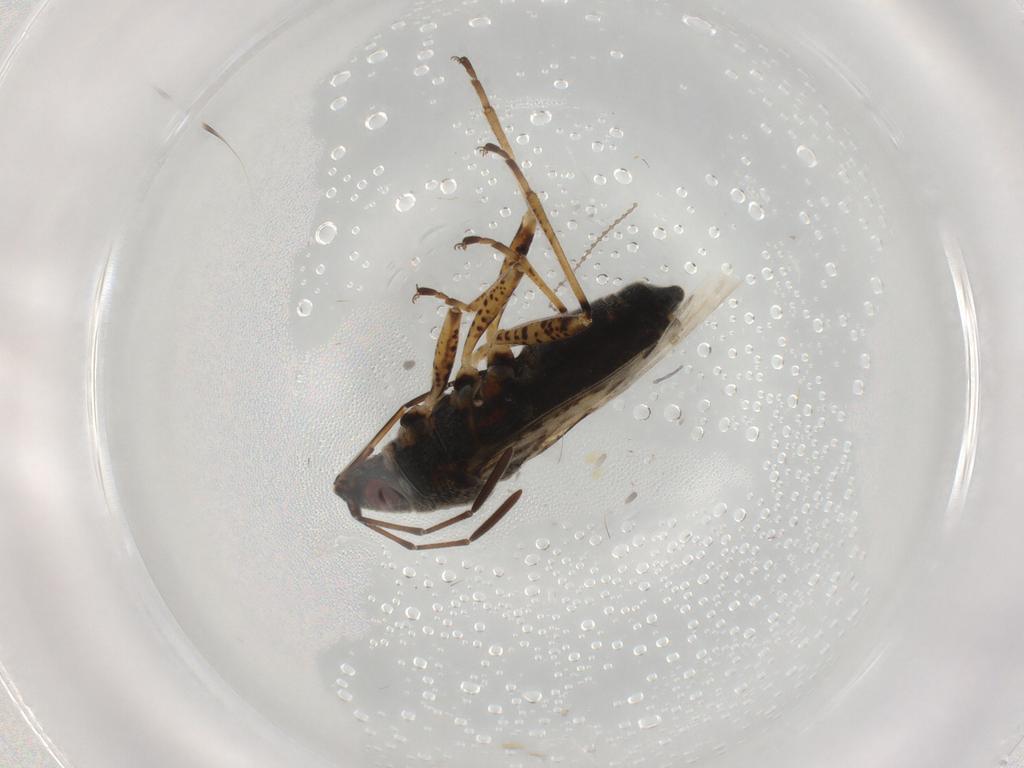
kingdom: Animalia
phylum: Arthropoda
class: Insecta
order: Hemiptera
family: Lygaeidae
